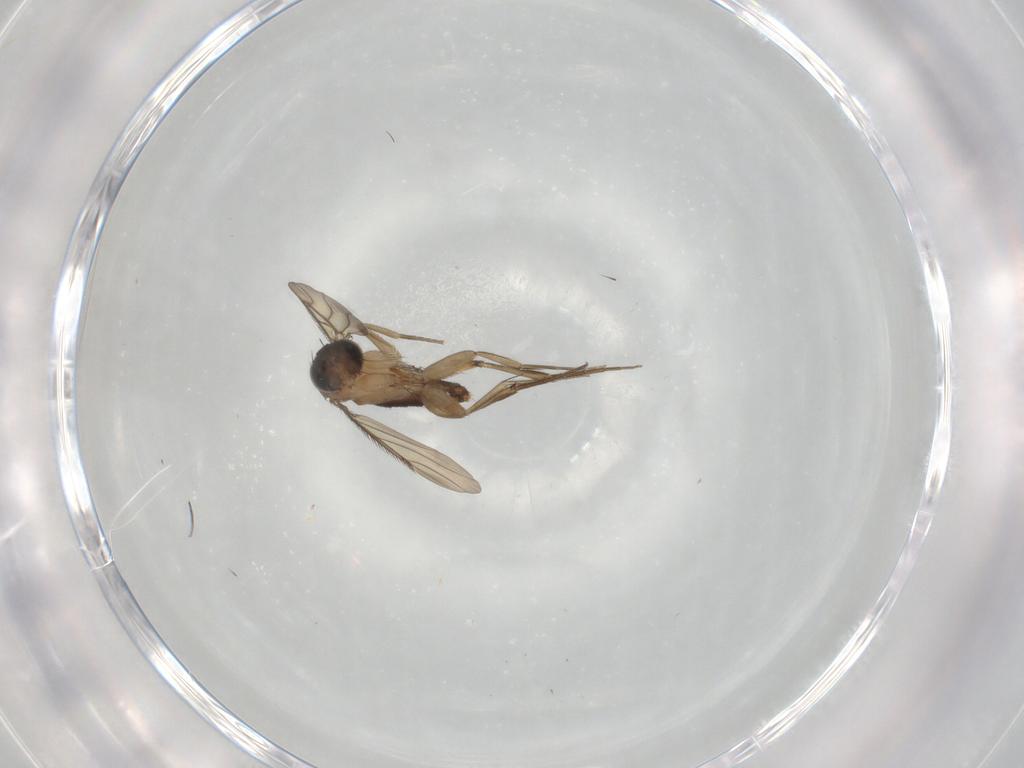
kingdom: Animalia
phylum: Arthropoda
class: Insecta
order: Diptera
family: Phoridae
